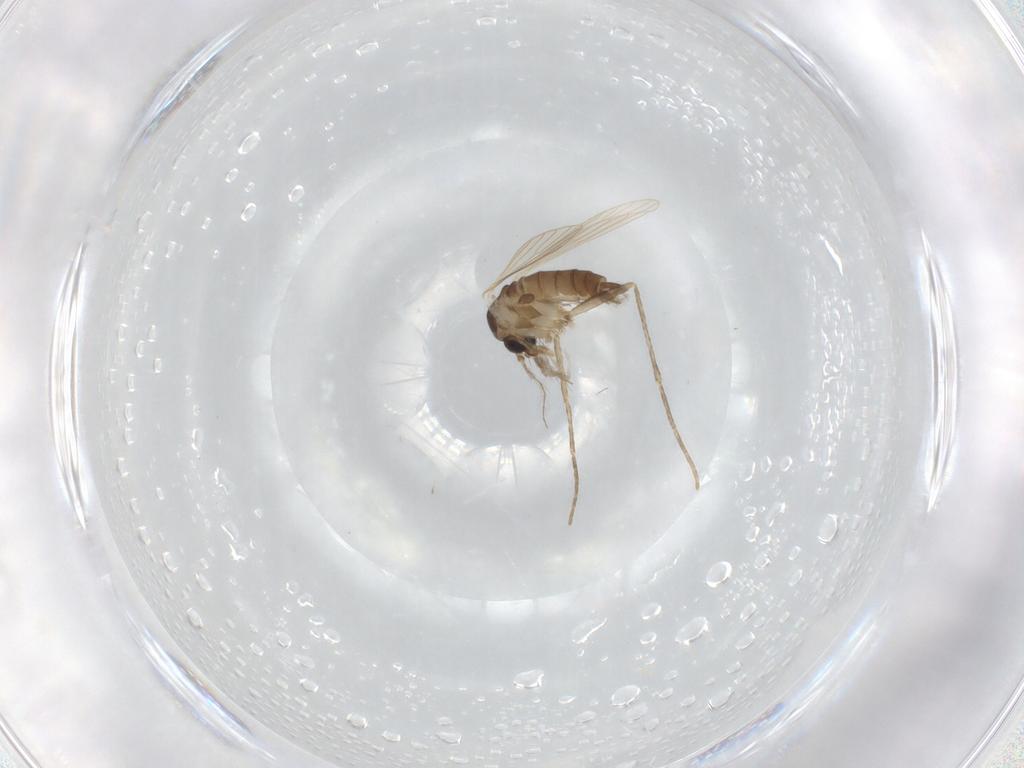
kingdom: Animalia
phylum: Arthropoda
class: Insecta
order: Diptera
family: Psychodidae
